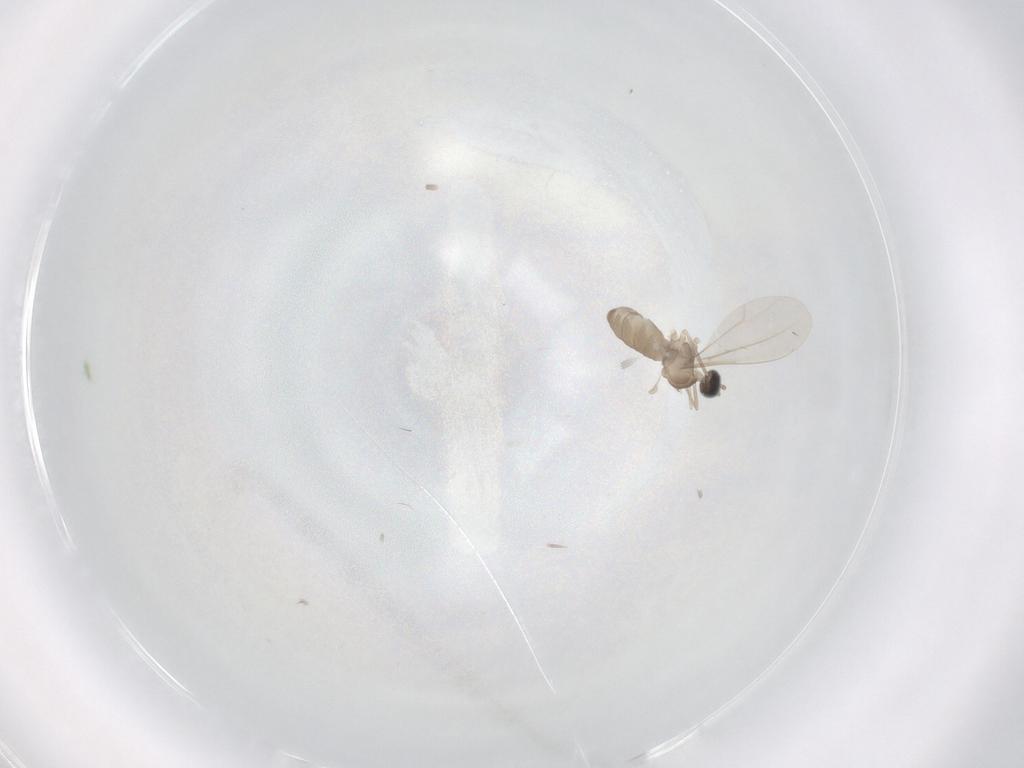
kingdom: Animalia
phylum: Arthropoda
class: Insecta
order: Diptera
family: Cecidomyiidae
